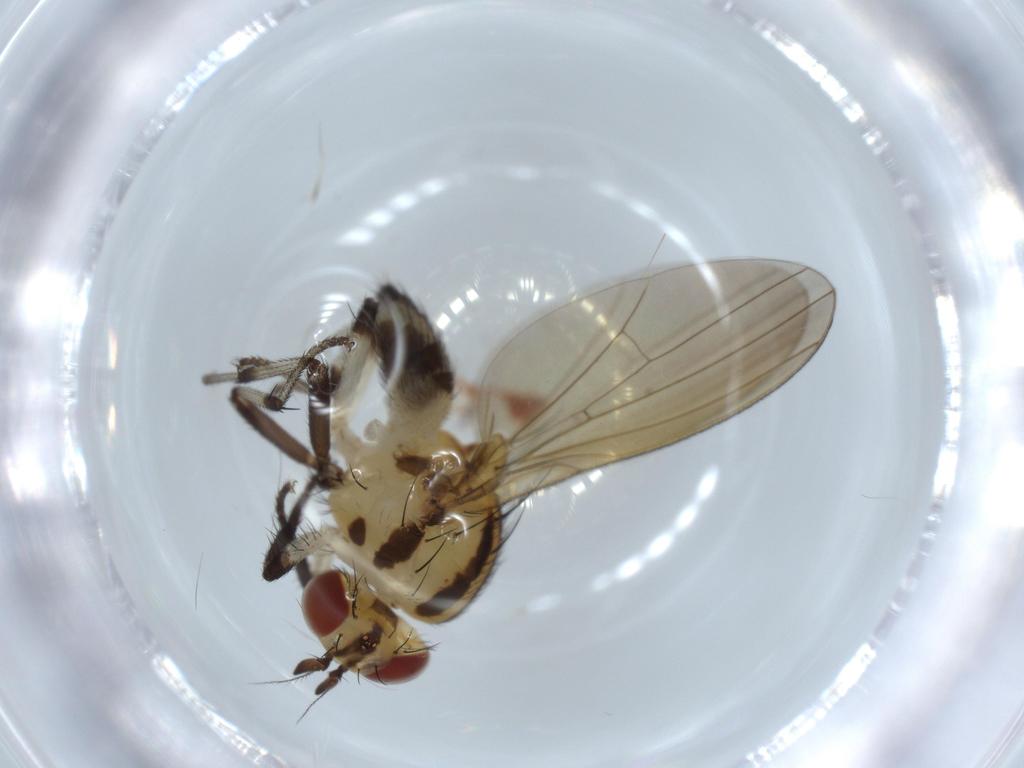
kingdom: Animalia
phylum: Arthropoda
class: Insecta
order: Diptera
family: Lauxaniidae
